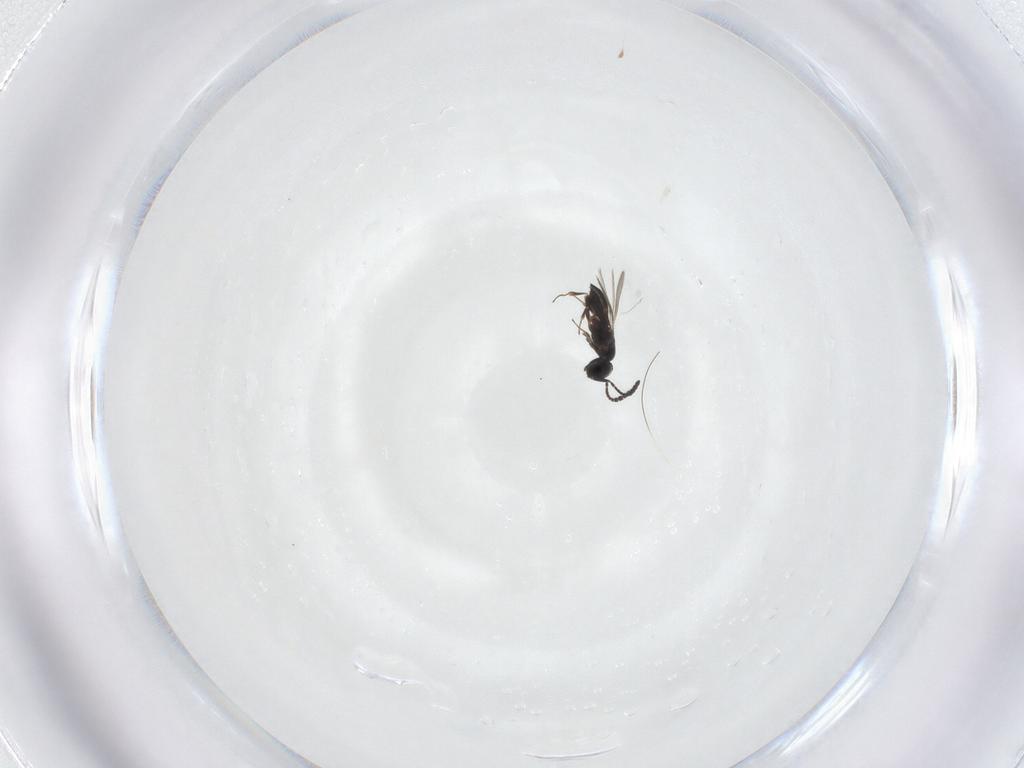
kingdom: Animalia
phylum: Arthropoda
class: Insecta
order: Hymenoptera
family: Scelionidae
